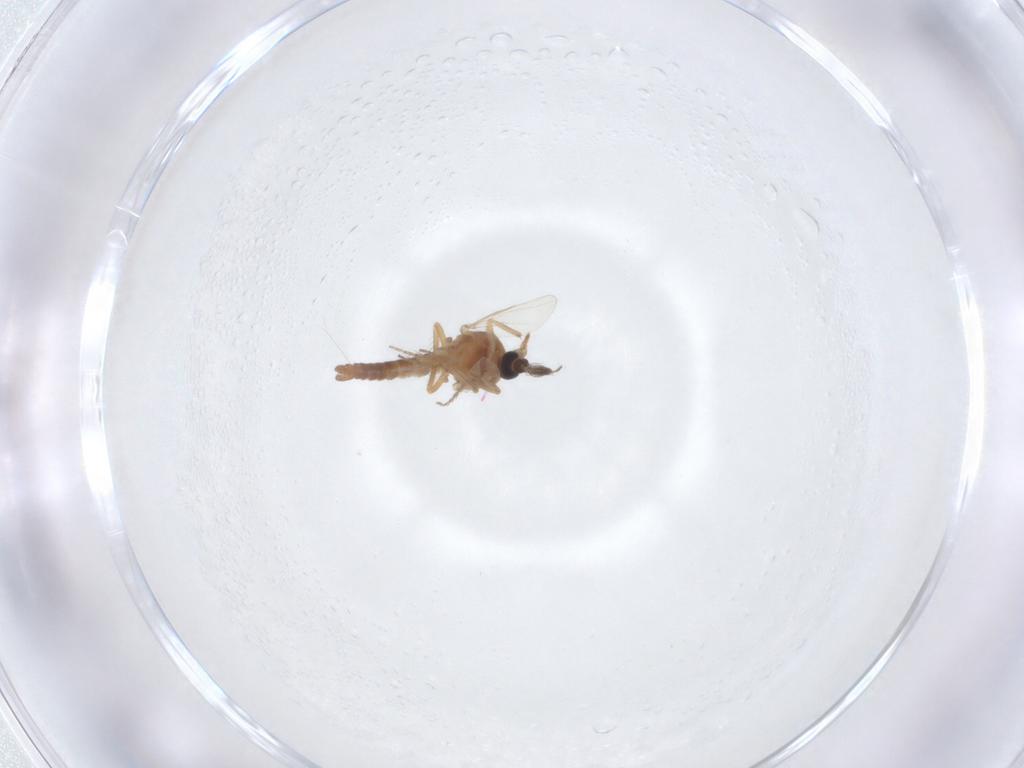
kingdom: Animalia
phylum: Arthropoda
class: Insecta
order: Diptera
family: Ceratopogonidae
